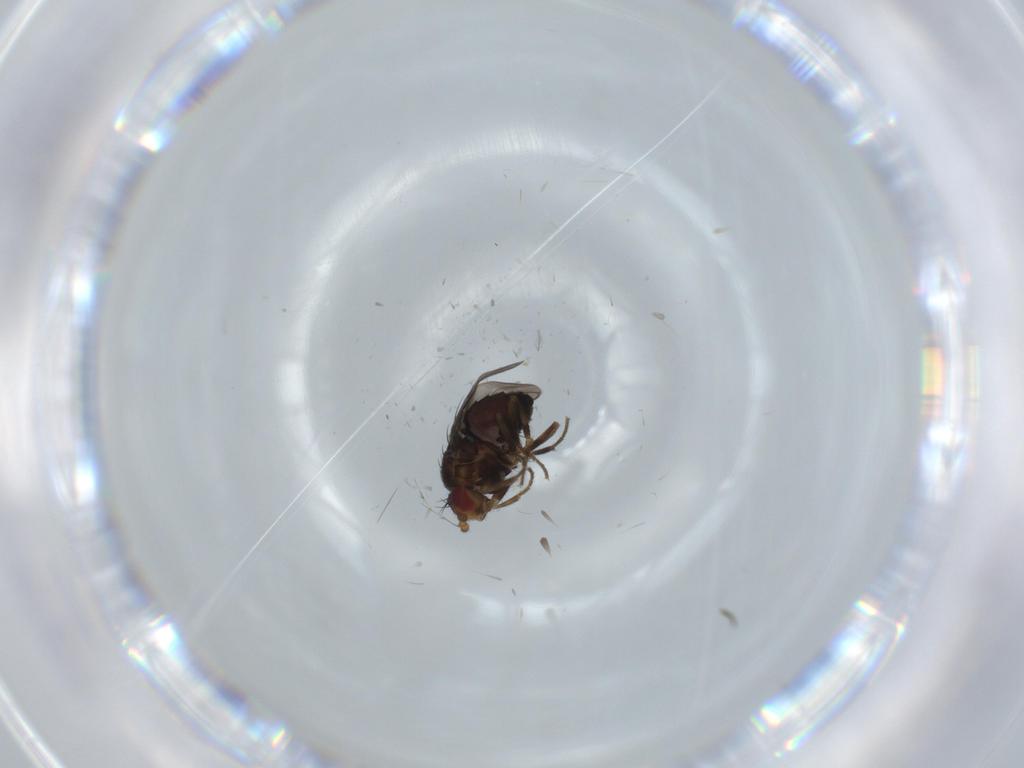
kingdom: Animalia
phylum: Arthropoda
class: Insecta
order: Diptera
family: Sphaeroceridae
